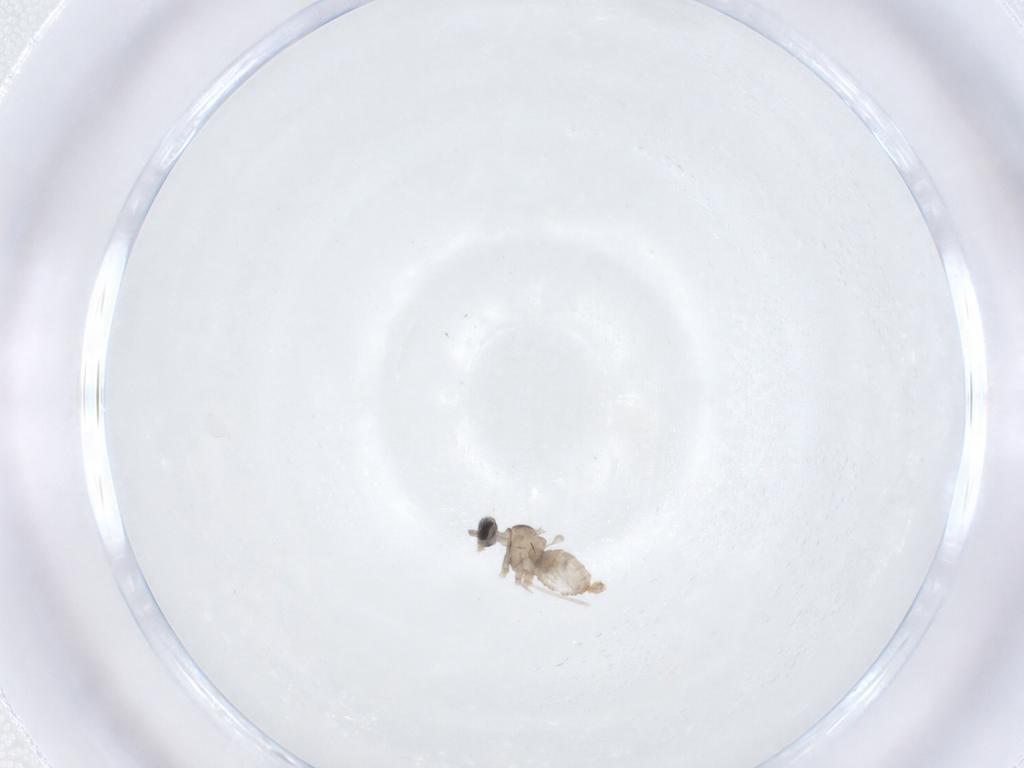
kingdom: Animalia
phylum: Arthropoda
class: Insecta
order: Diptera
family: Cecidomyiidae
